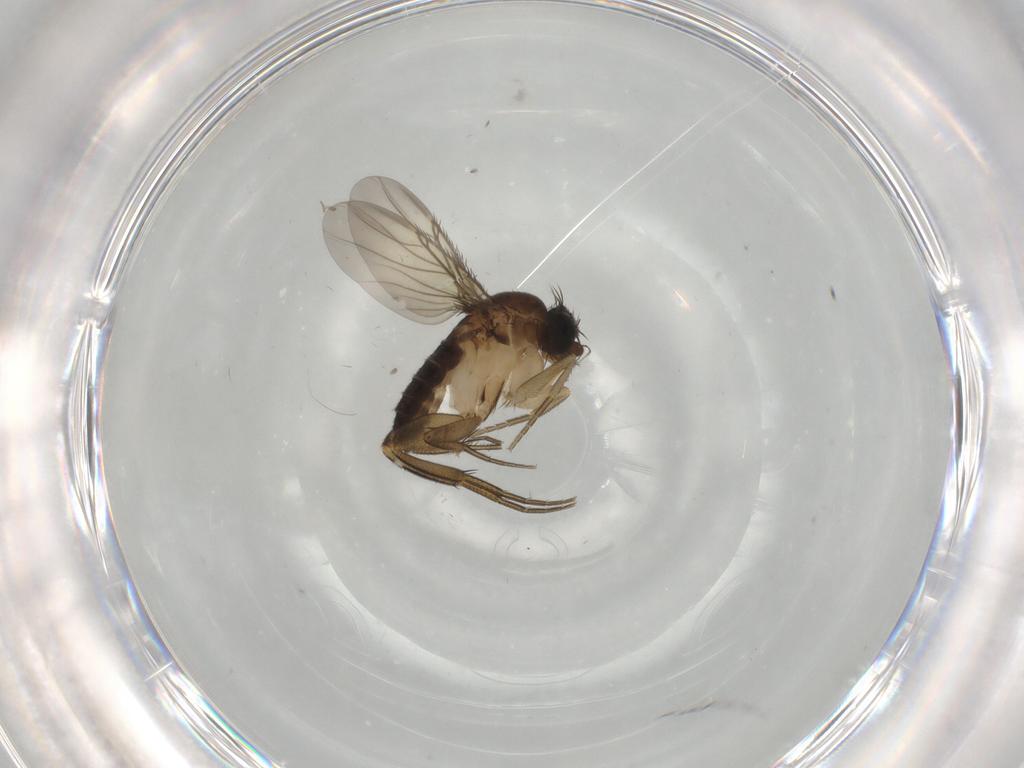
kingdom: Animalia
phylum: Arthropoda
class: Insecta
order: Diptera
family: Phoridae
